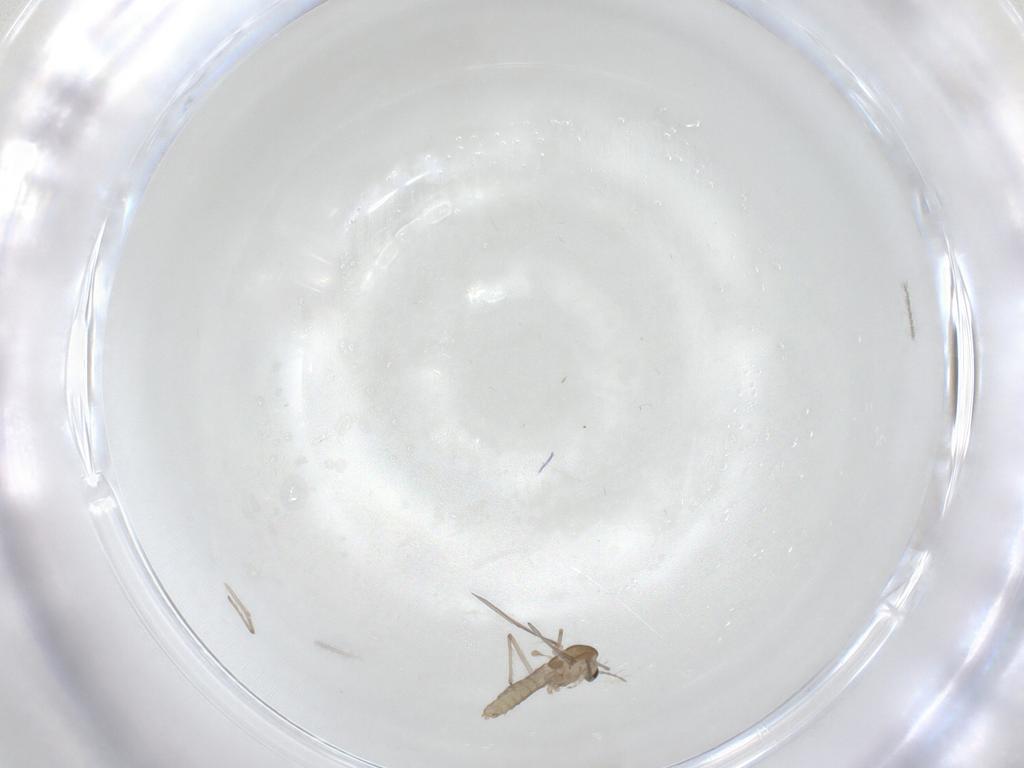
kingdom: Animalia
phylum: Arthropoda
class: Insecta
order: Diptera
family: Chironomidae
